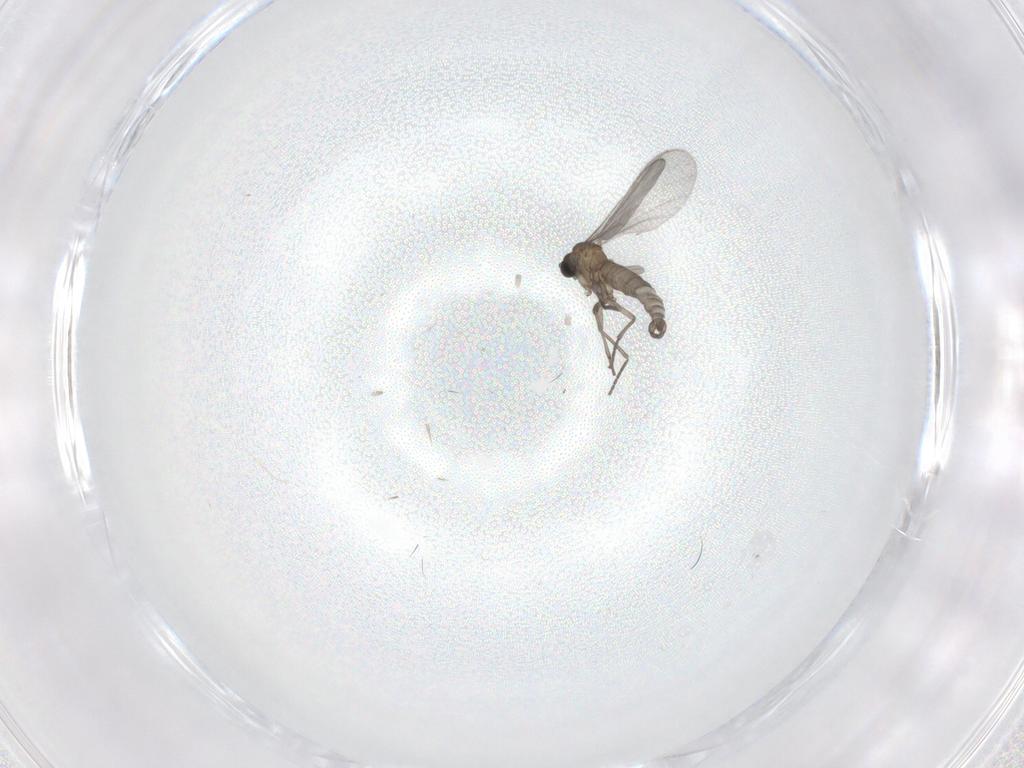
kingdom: Animalia
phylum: Arthropoda
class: Insecta
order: Diptera
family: Sciaridae
